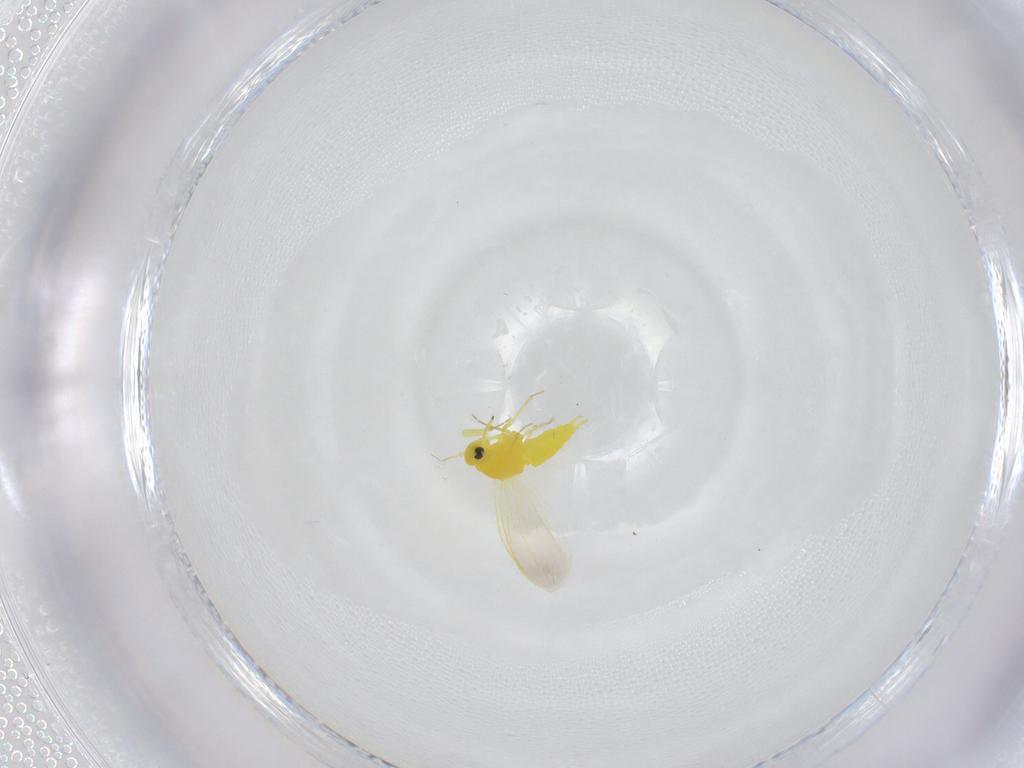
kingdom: Animalia
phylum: Arthropoda
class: Insecta
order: Hemiptera
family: Aleyrodidae
